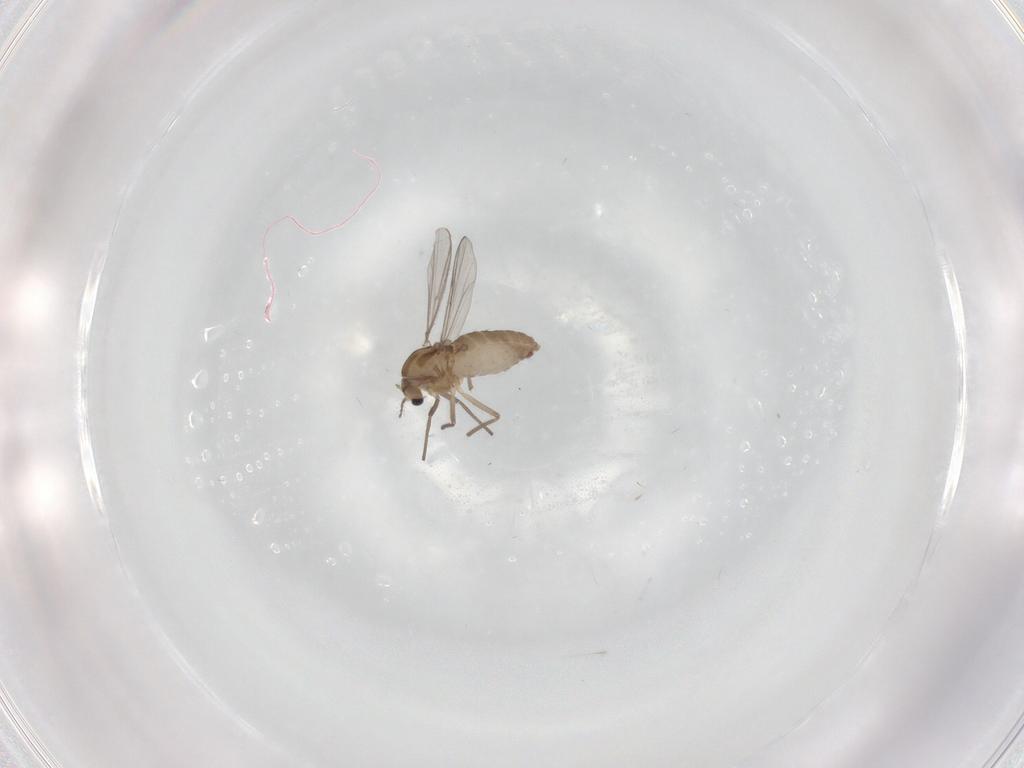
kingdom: Animalia
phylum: Arthropoda
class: Insecta
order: Diptera
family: Chironomidae
